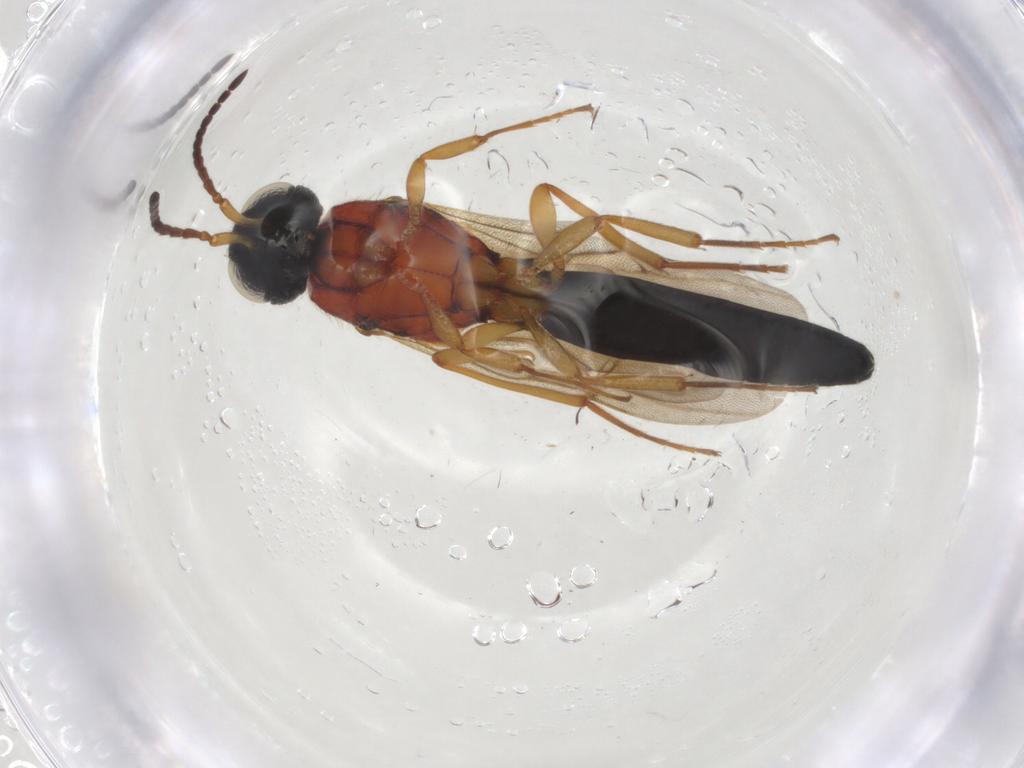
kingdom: Animalia
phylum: Arthropoda
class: Insecta
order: Hymenoptera
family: Scelionidae
